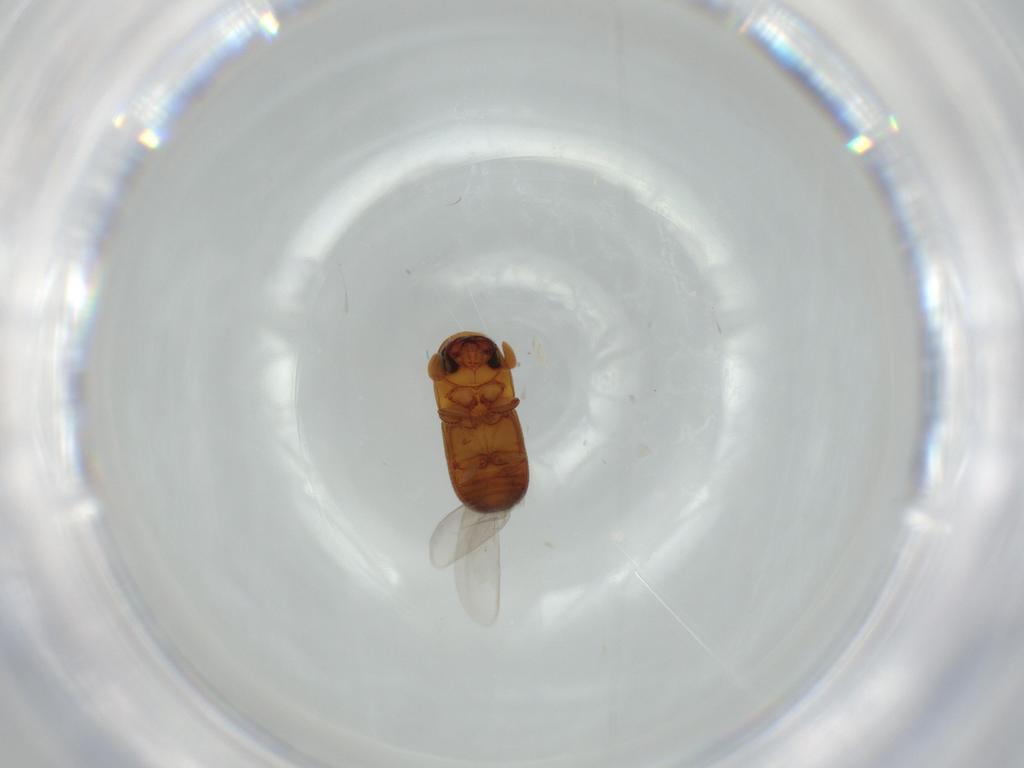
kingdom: Animalia
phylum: Arthropoda
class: Insecta
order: Coleoptera
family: Curculionidae
